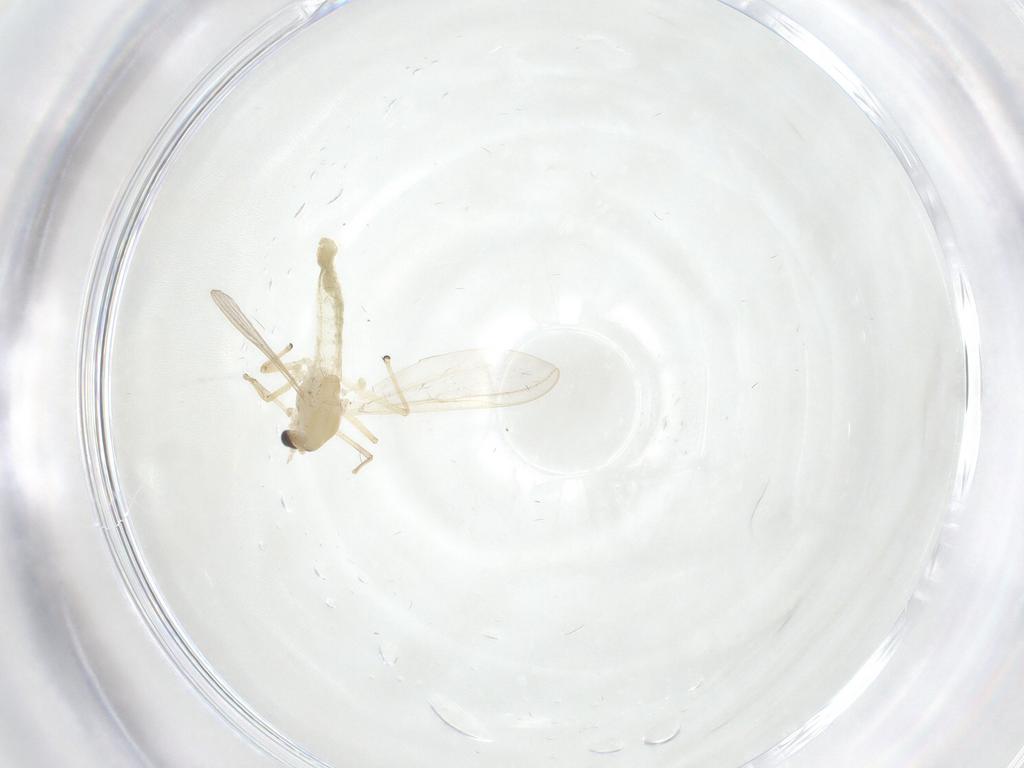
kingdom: Animalia
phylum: Arthropoda
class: Insecta
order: Diptera
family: Chironomidae
